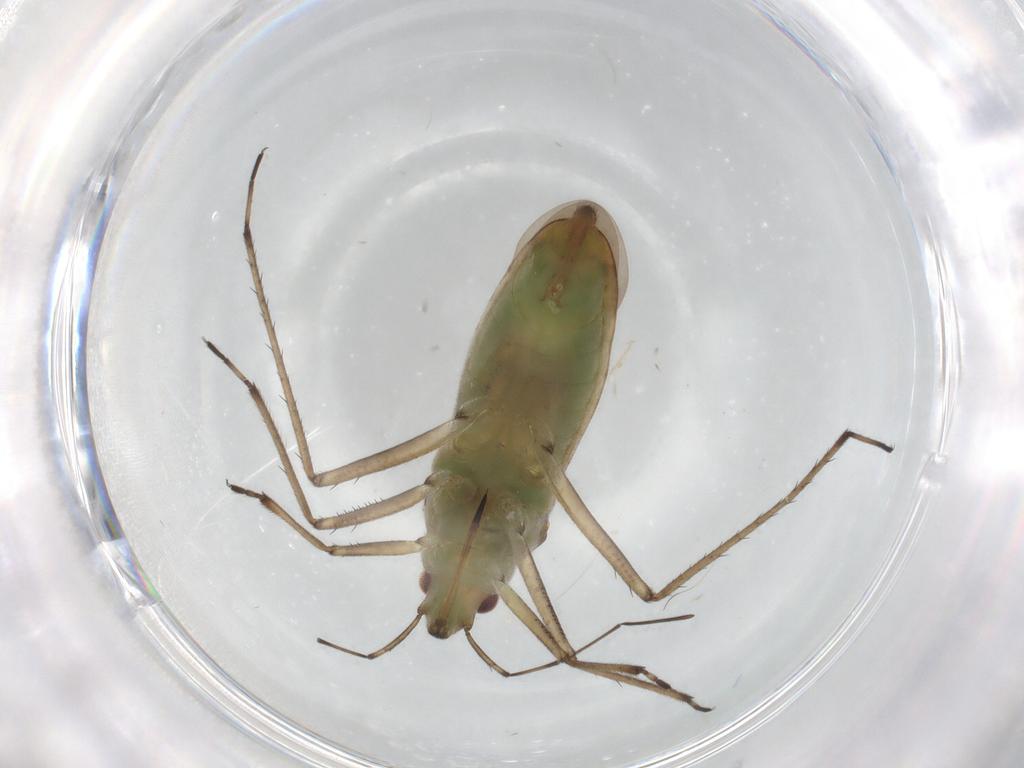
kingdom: Animalia
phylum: Arthropoda
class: Insecta
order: Hemiptera
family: Mesoveliidae
